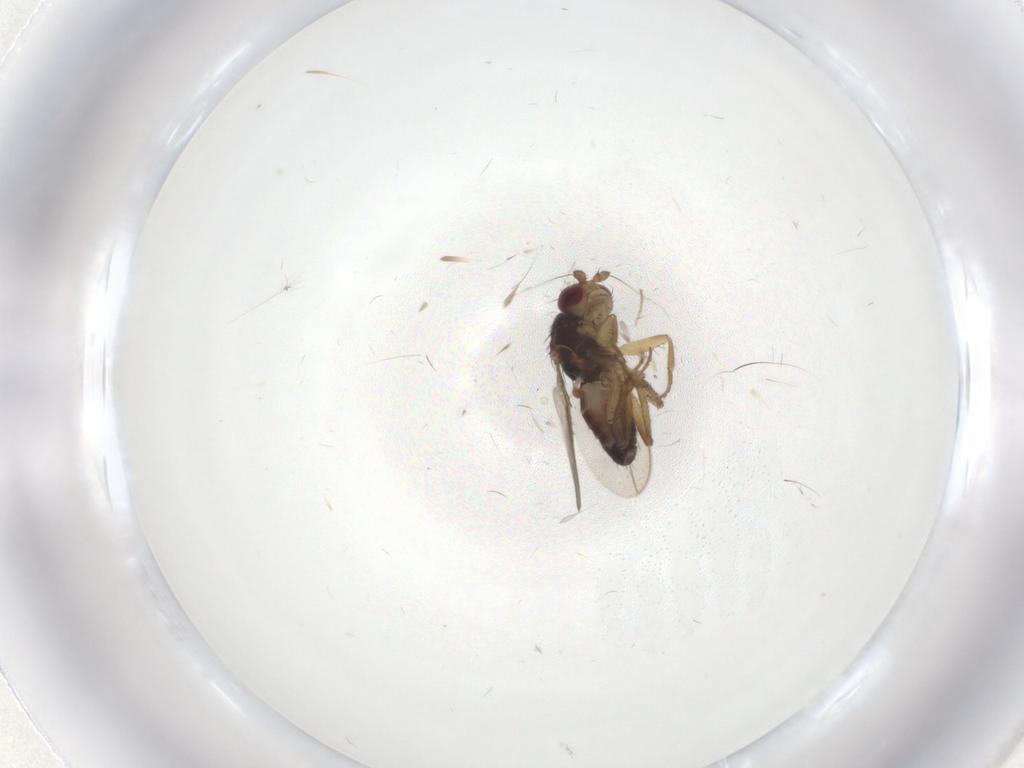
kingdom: Animalia
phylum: Arthropoda
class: Insecta
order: Diptera
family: Sphaeroceridae
